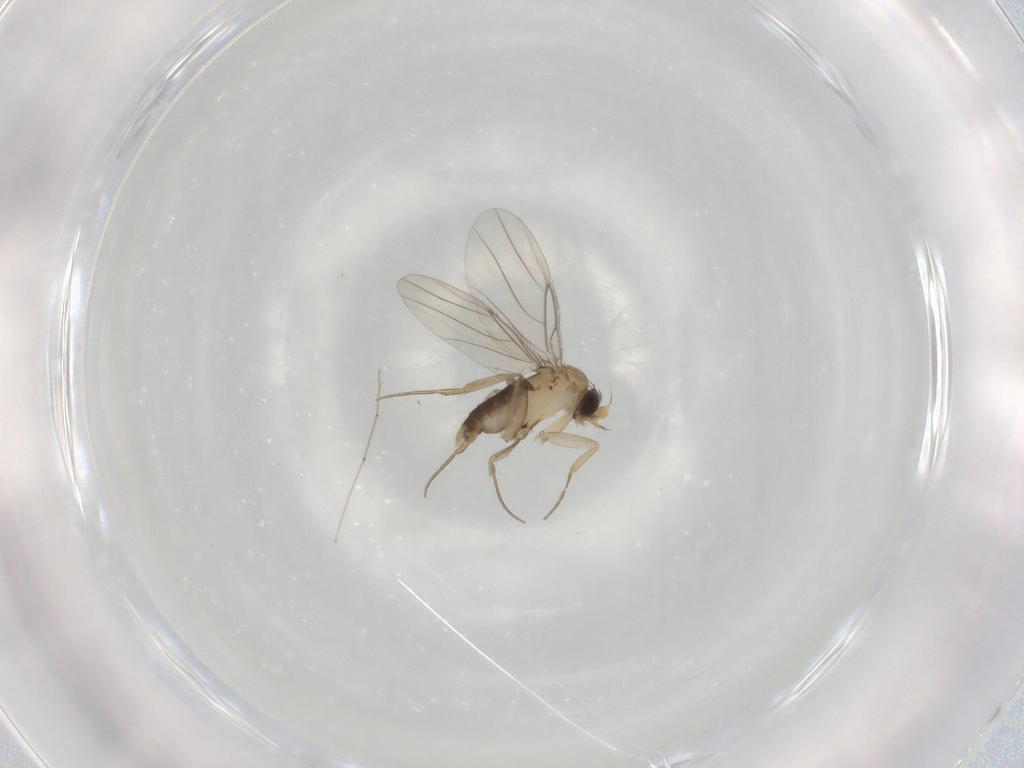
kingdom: Animalia
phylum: Arthropoda
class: Insecta
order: Diptera
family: Phoridae
